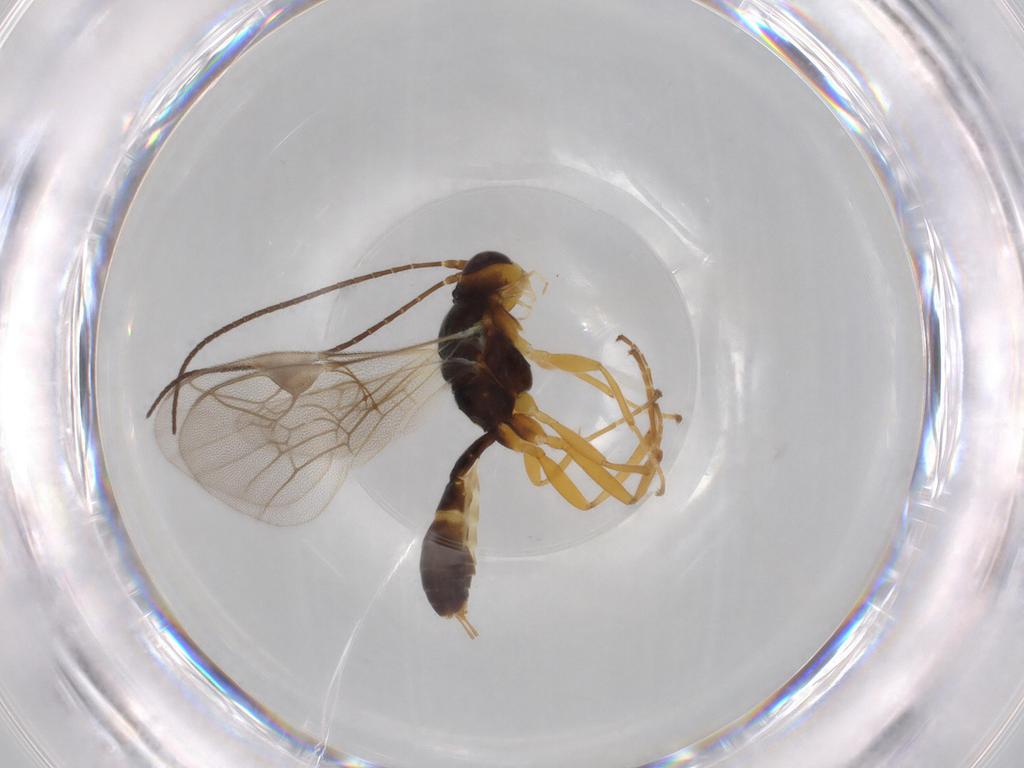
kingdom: Animalia
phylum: Arthropoda
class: Insecta
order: Hymenoptera
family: Ichneumonidae
